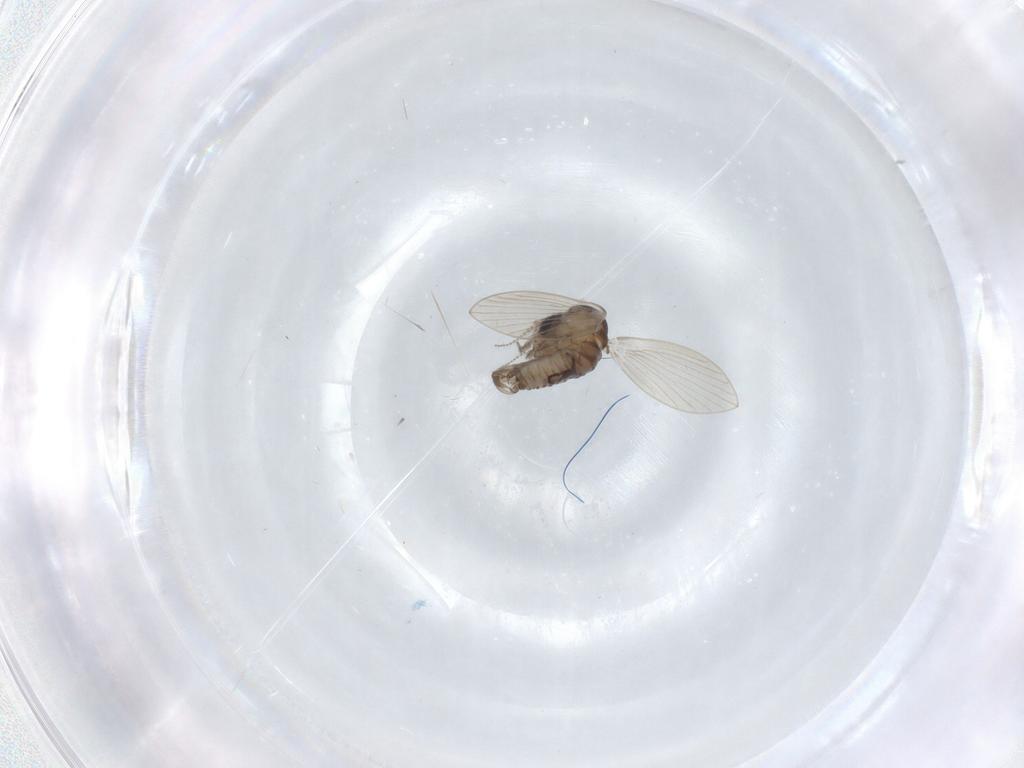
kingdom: Animalia
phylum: Arthropoda
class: Insecta
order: Diptera
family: Psychodidae
